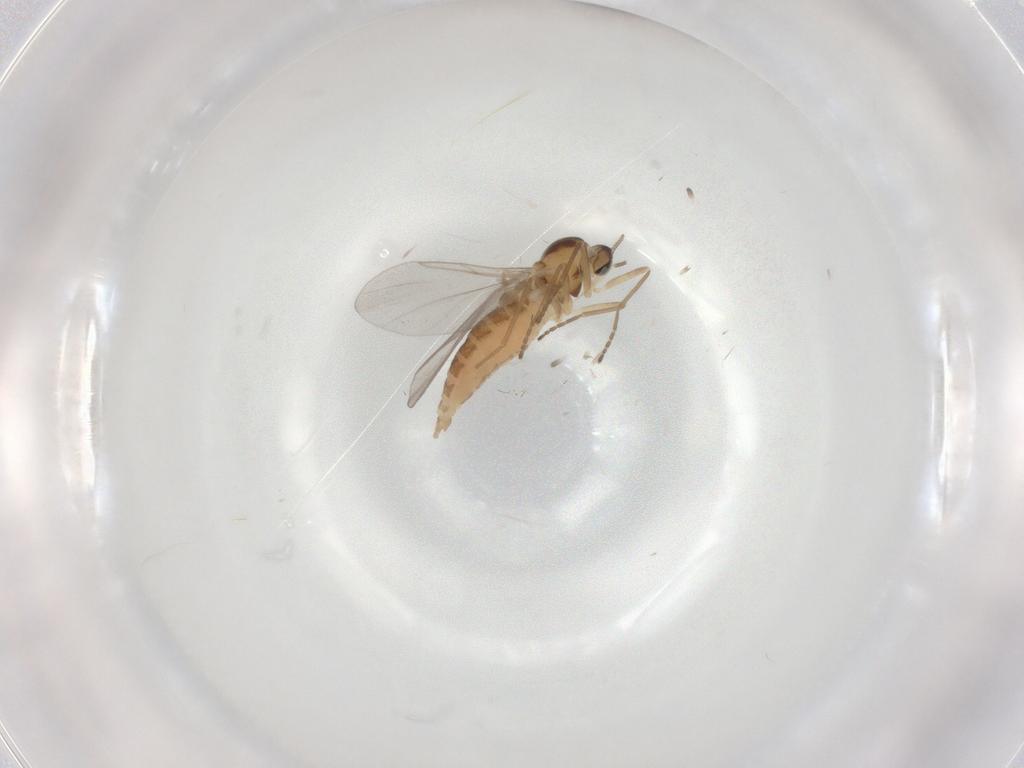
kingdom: Animalia
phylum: Arthropoda
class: Insecta
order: Diptera
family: Cecidomyiidae
